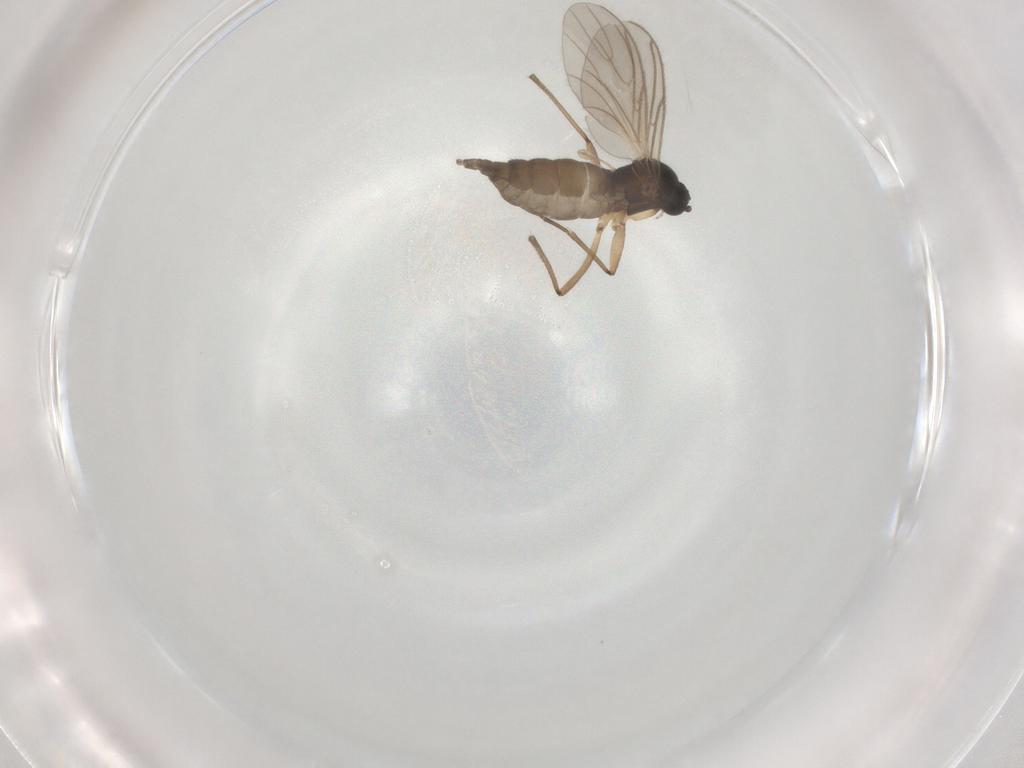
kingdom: Animalia
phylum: Arthropoda
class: Insecta
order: Diptera
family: Sciaridae
